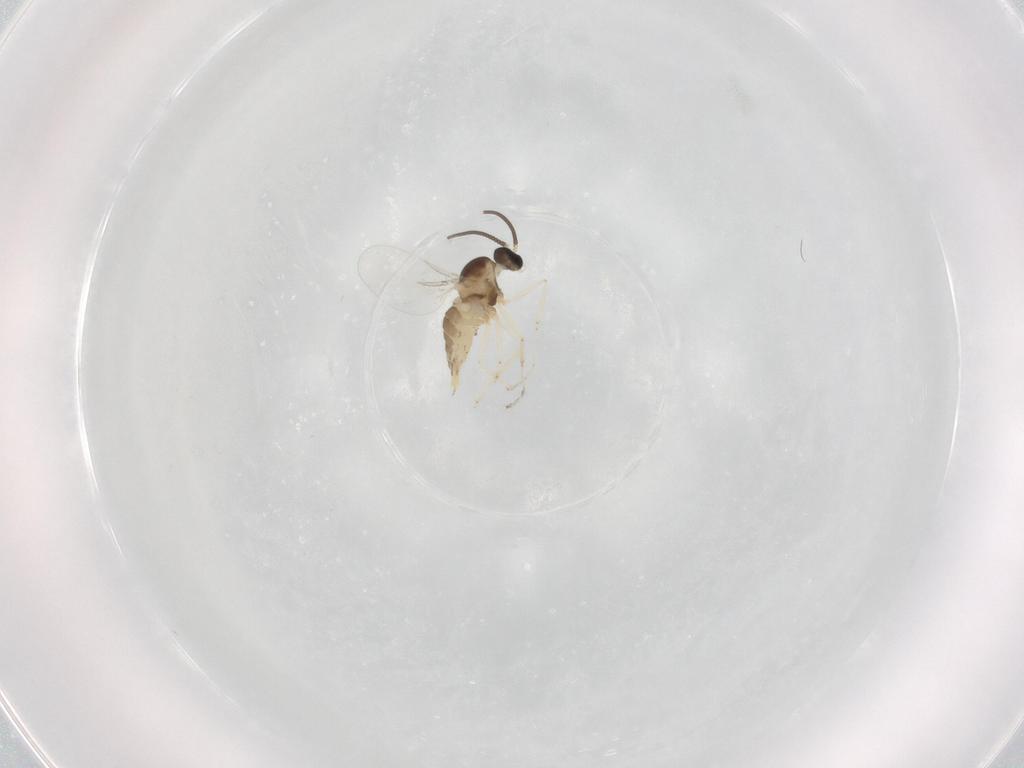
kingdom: Animalia
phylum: Arthropoda
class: Insecta
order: Diptera
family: Cecidomyiidae
